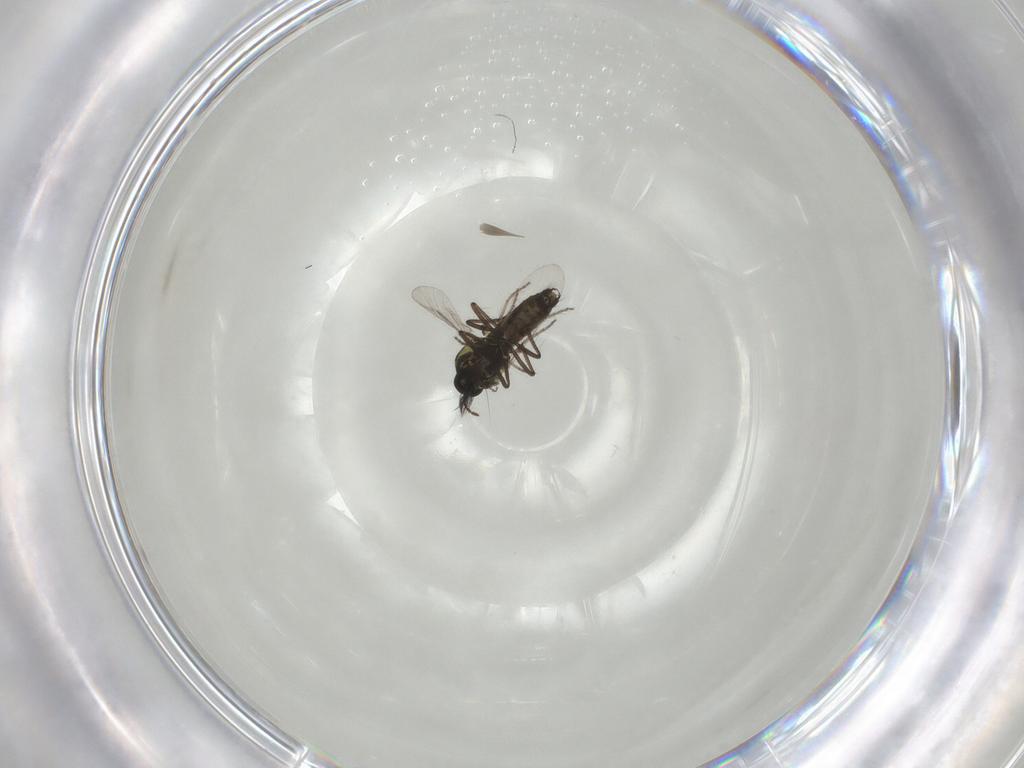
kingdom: Animalia
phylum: Arthropoda
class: Insecta
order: Diptera
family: Ceratopogonidae
